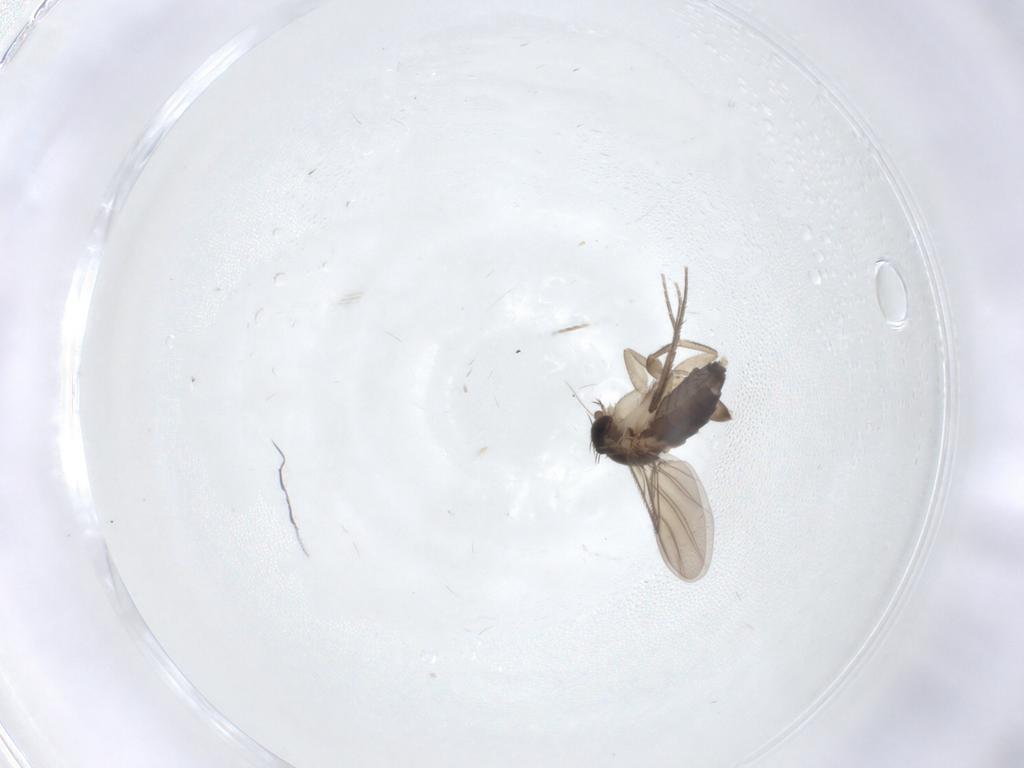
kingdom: Animalia
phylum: Arthropoda
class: Insecta
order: Diptera
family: Phoridae
